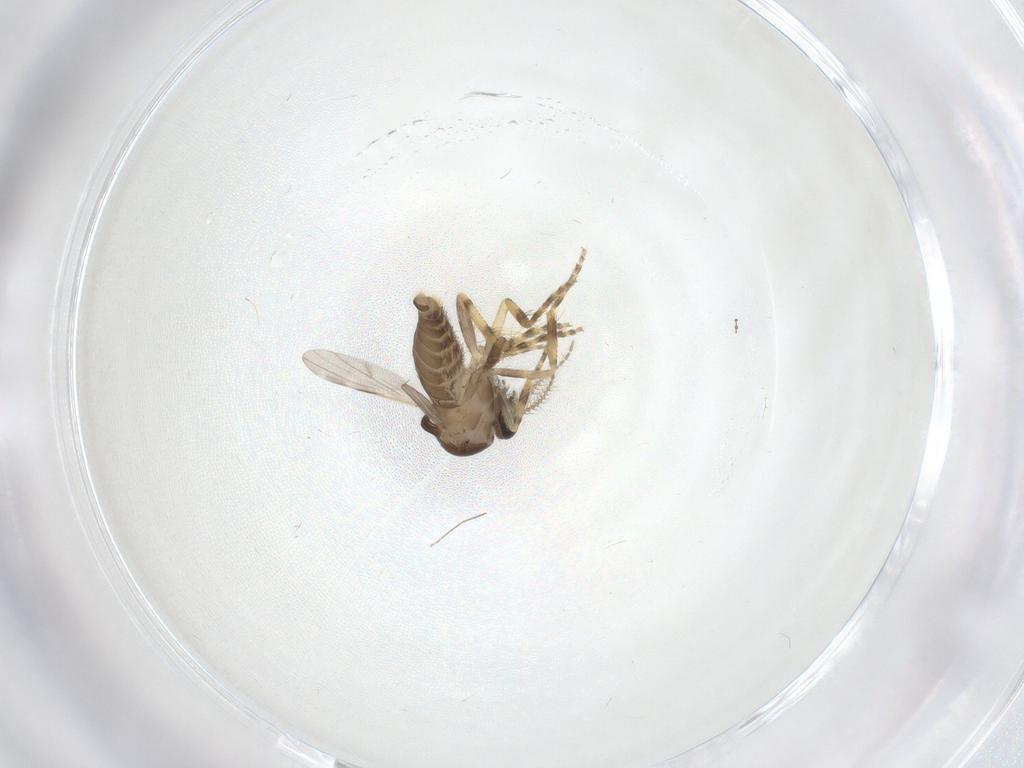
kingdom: Animalia
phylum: Arthropoda
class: Insecta
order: Diptera
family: Ceratopogonidae
